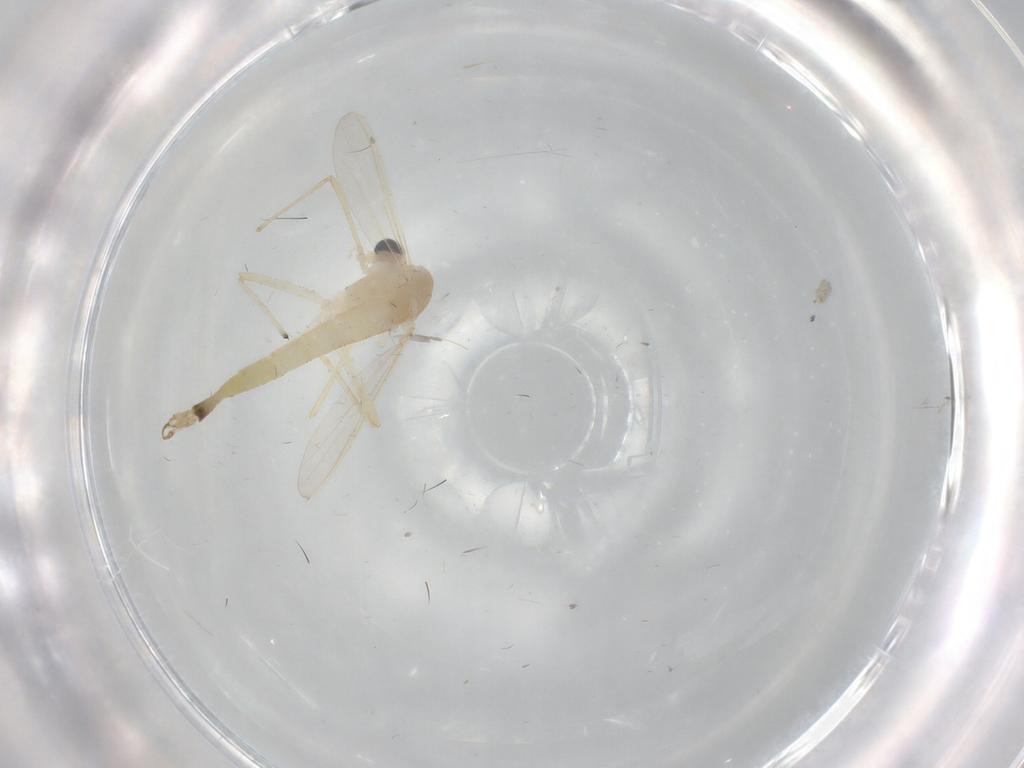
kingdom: Animalia
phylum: Arthropoda
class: Insecta
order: Diptera
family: Chironomidae
